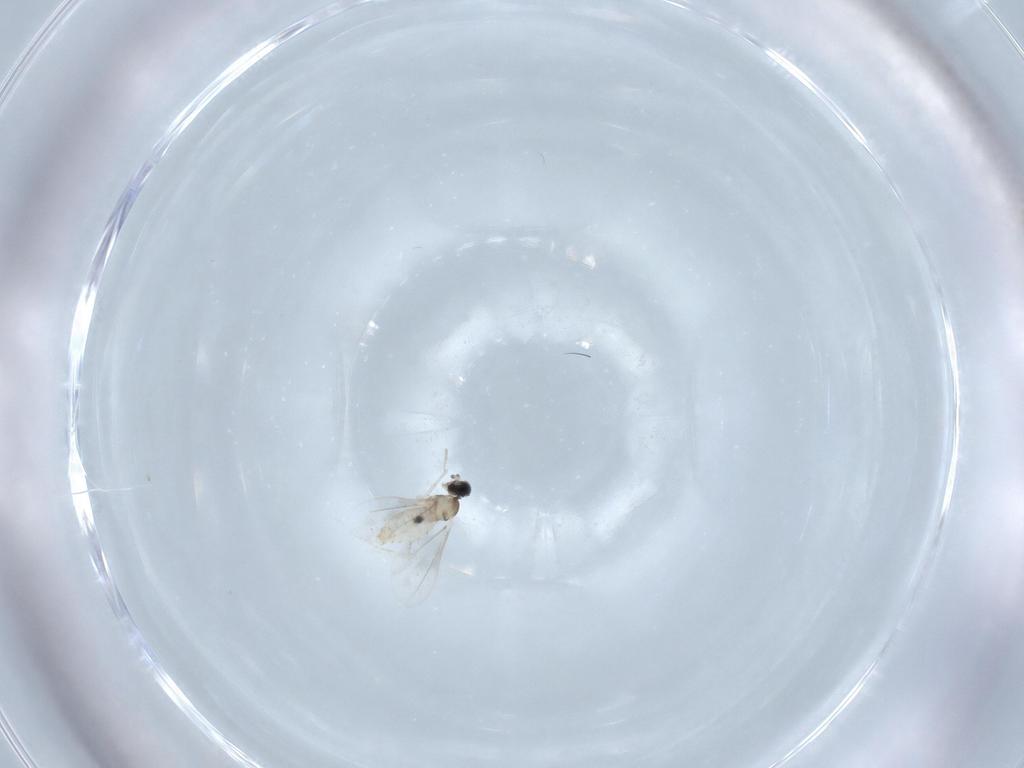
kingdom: Animalia
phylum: Arthropoda
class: Insecta
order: Diptera
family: Cecidomyiidae
